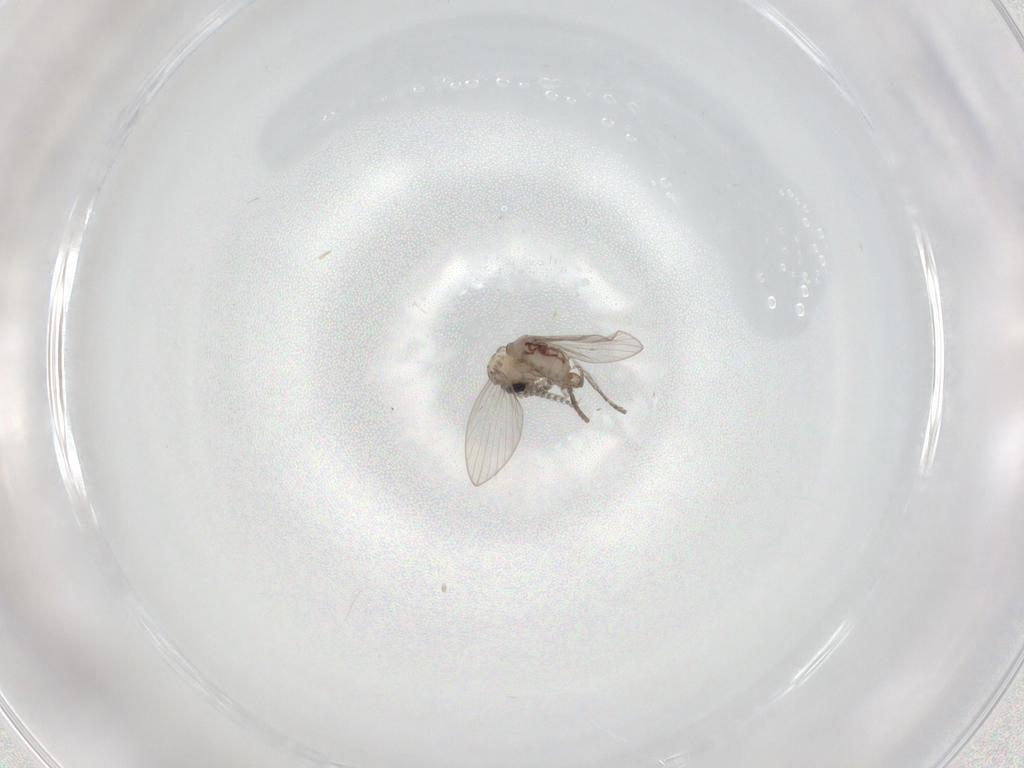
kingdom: Animalia
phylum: Arthropoda
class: Insecta
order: Diptera
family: Psychodidae
